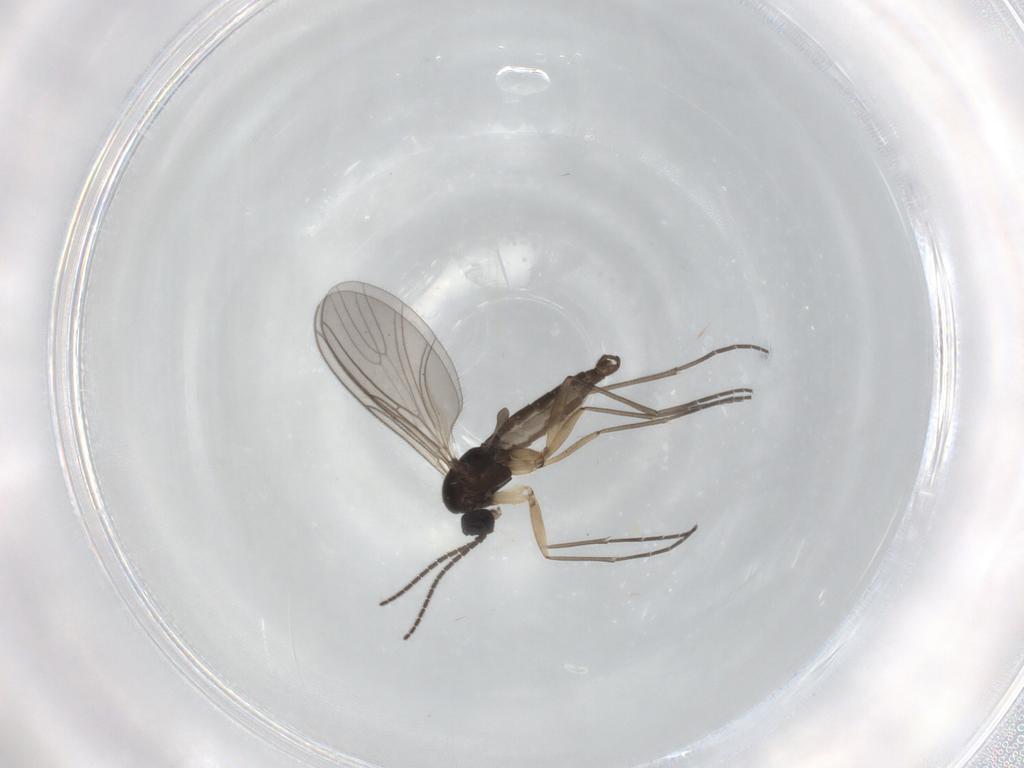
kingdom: Animalia
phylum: Arthropoda
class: Insecta
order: Diptera
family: Sciaridae
